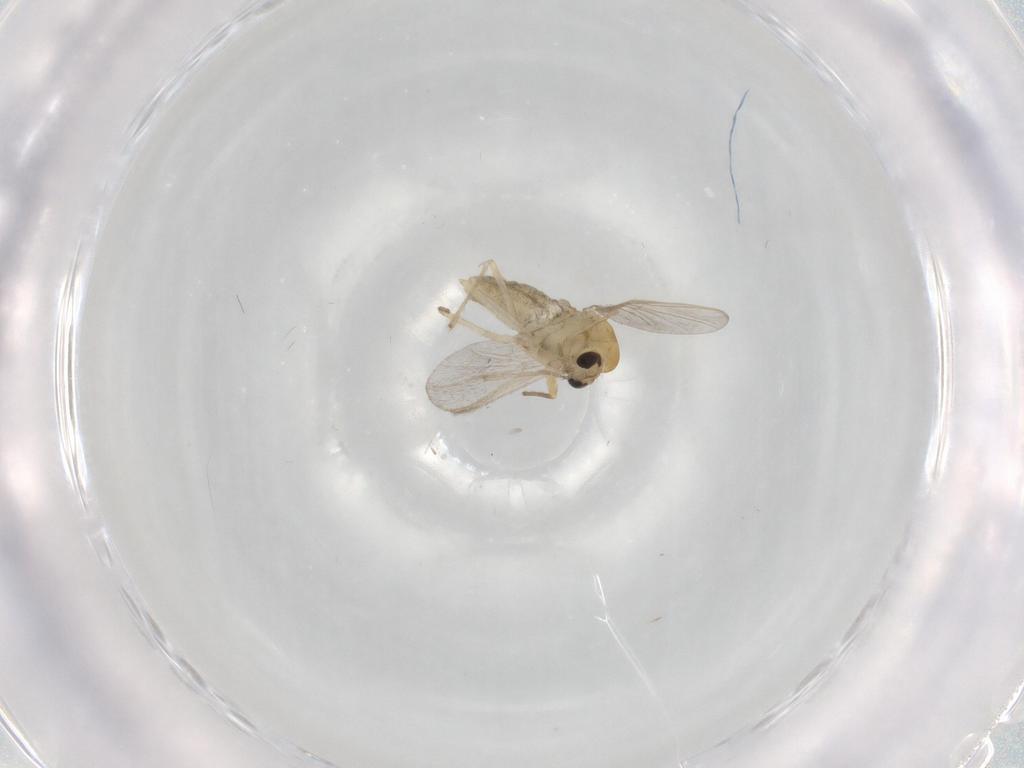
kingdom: Animalia
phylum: Arthropoda
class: Insecta
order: Diptera
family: Chironomidae
